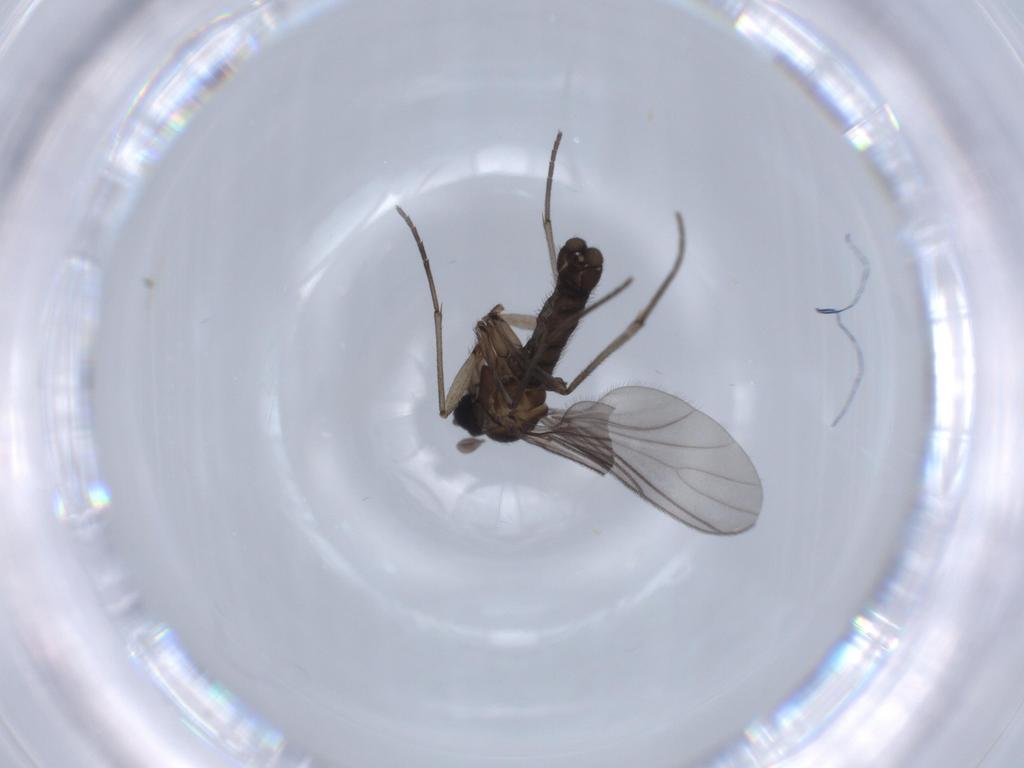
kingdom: Animalia
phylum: Arthropoda
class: Insecta
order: Diptera
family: Sciaridae
